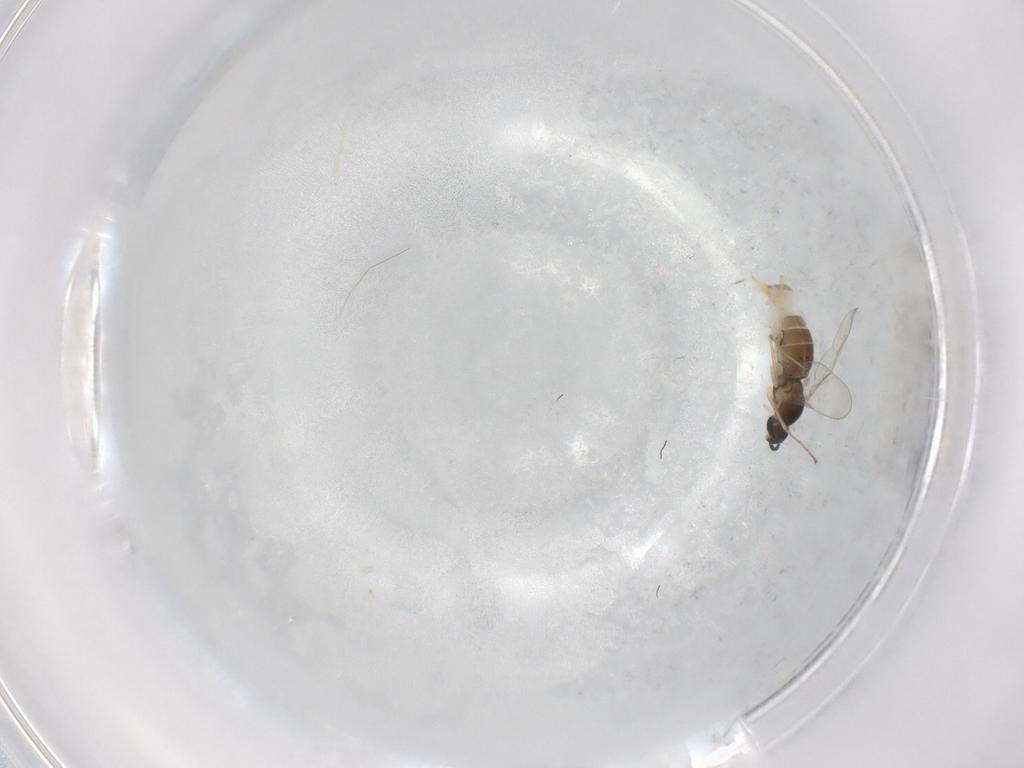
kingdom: Animalia
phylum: Arthropoda
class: Insecta
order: Diptera
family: Cecidomyiidae
